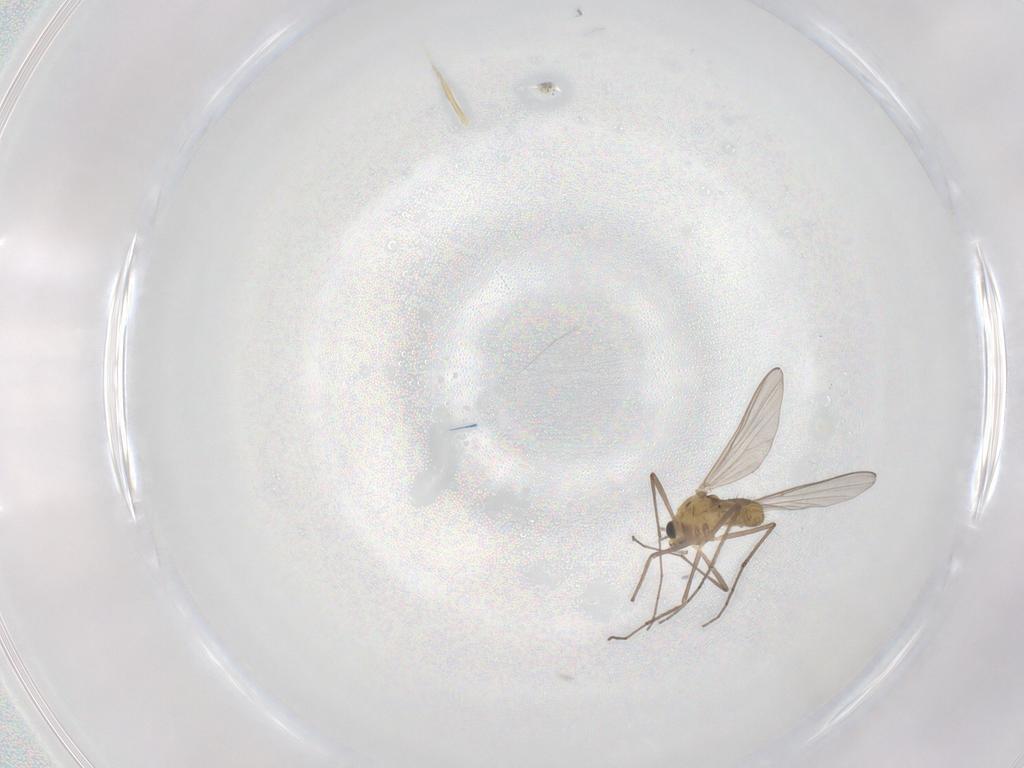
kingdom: Animalia
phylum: Arthropoda
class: Insecta
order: Diptera
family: Chironomidae
